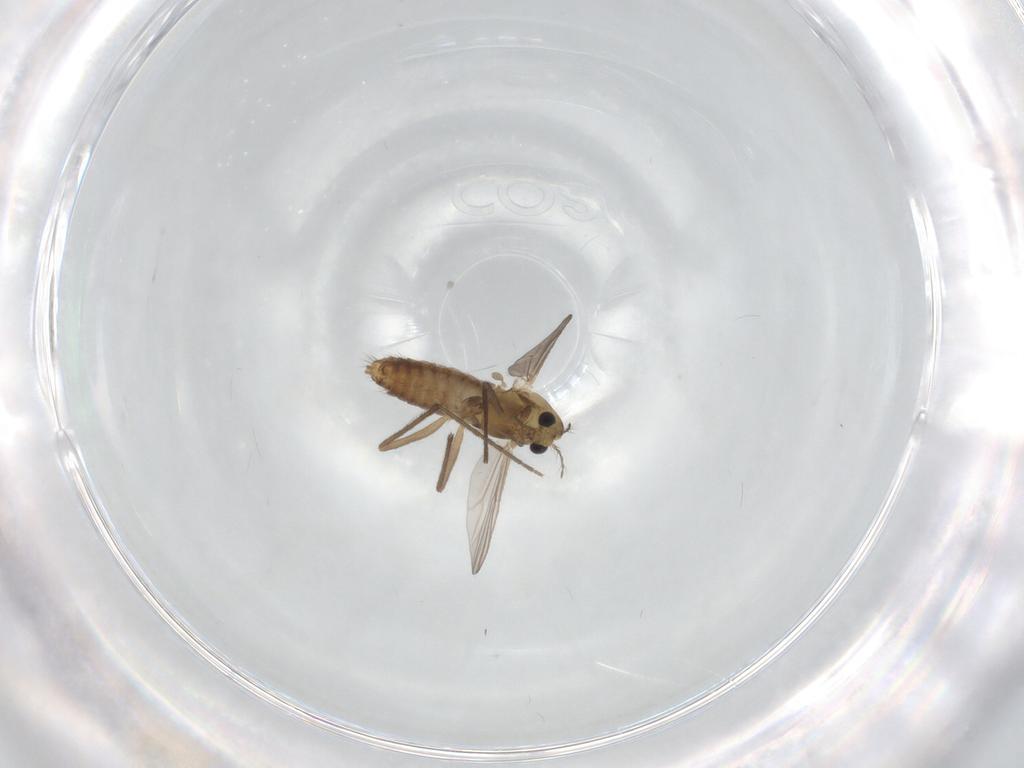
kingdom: Animalia
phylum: Arthropoda
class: Insecta
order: Diptera
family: Chironomidae
